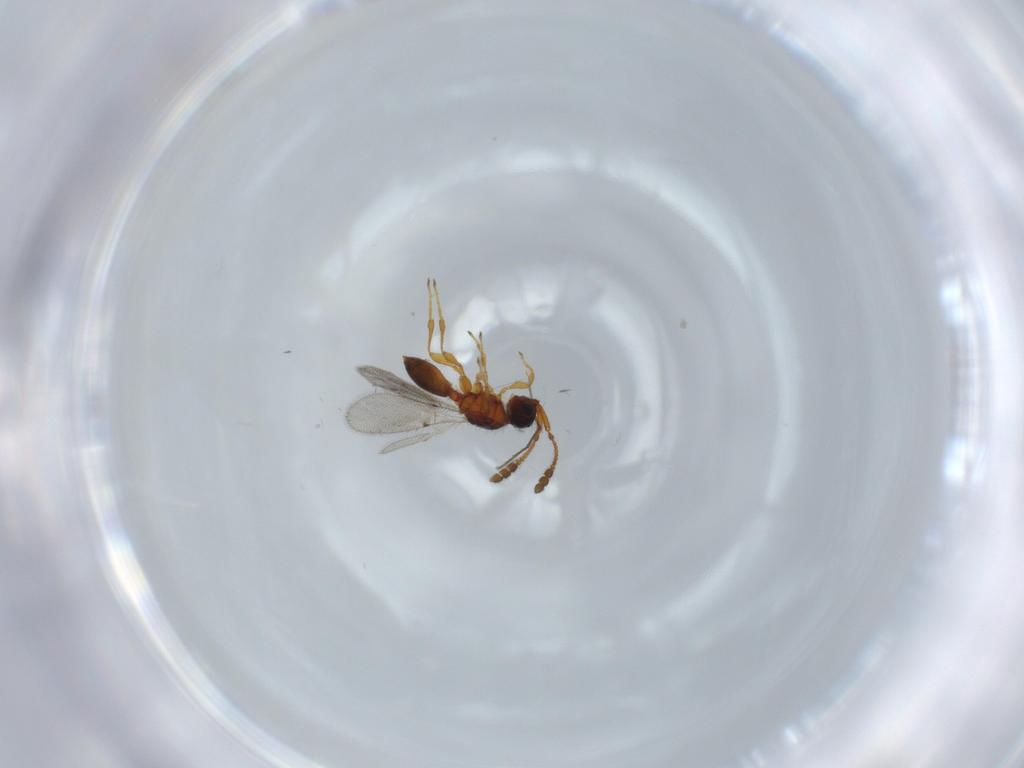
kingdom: Animalia
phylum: Arthropoda
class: Insecta
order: Hymenoptera
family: Diapriidae
